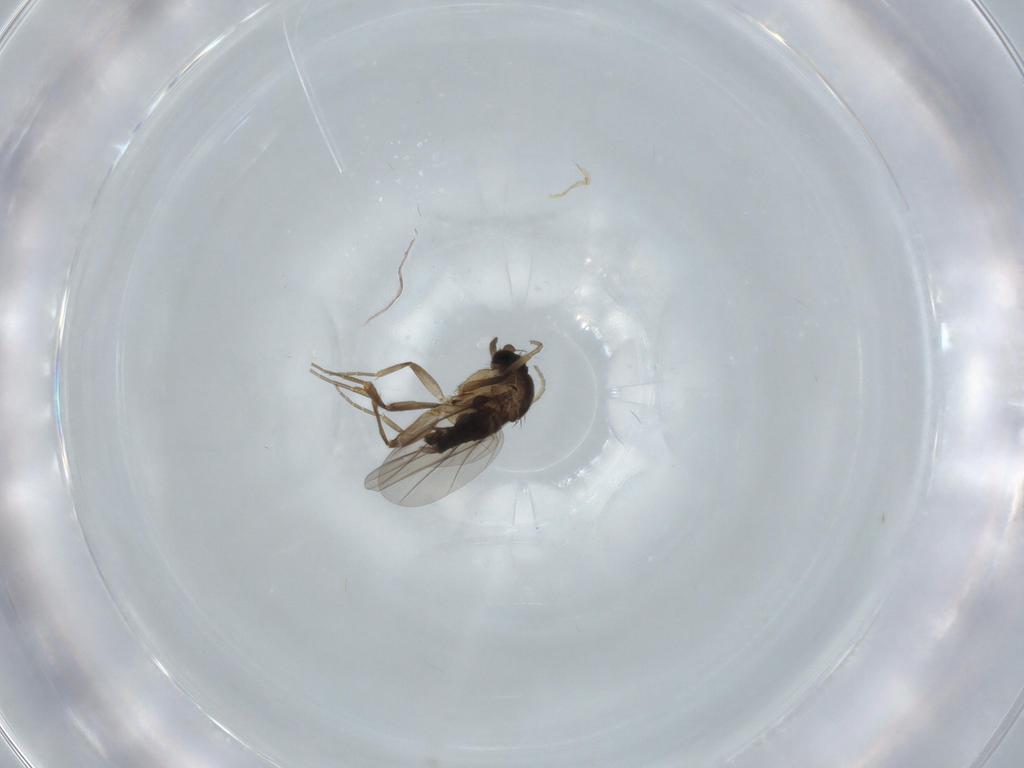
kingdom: Animalia
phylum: Arthropoda
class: Insecta
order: Diptera
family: Phoridae
